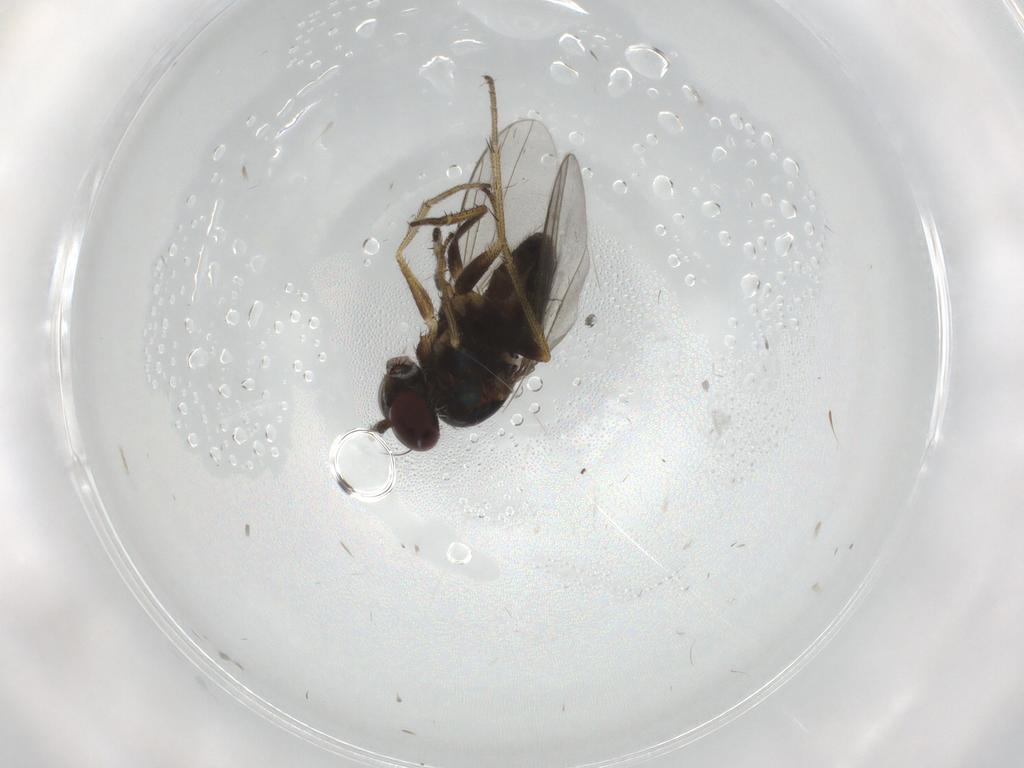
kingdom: Animalia
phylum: Arthropoda
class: Insecta
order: Diptera
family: Dolichopodidae
